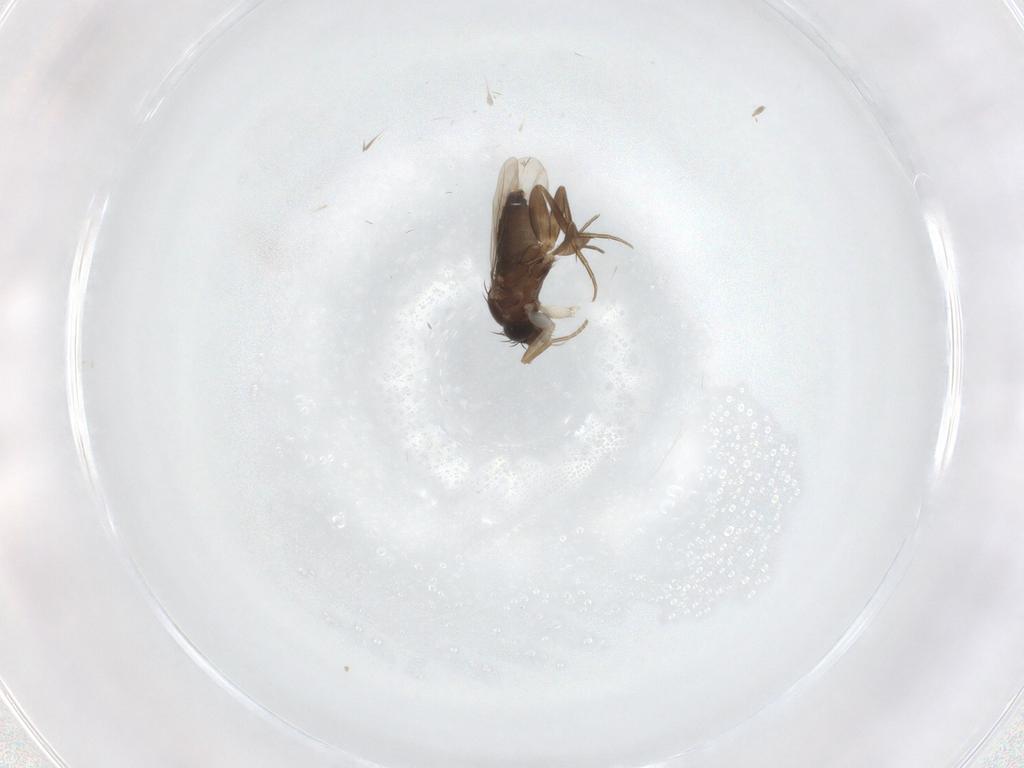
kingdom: Animalia
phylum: Arthropoda
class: Insecta
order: Diptera
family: Phoridae
